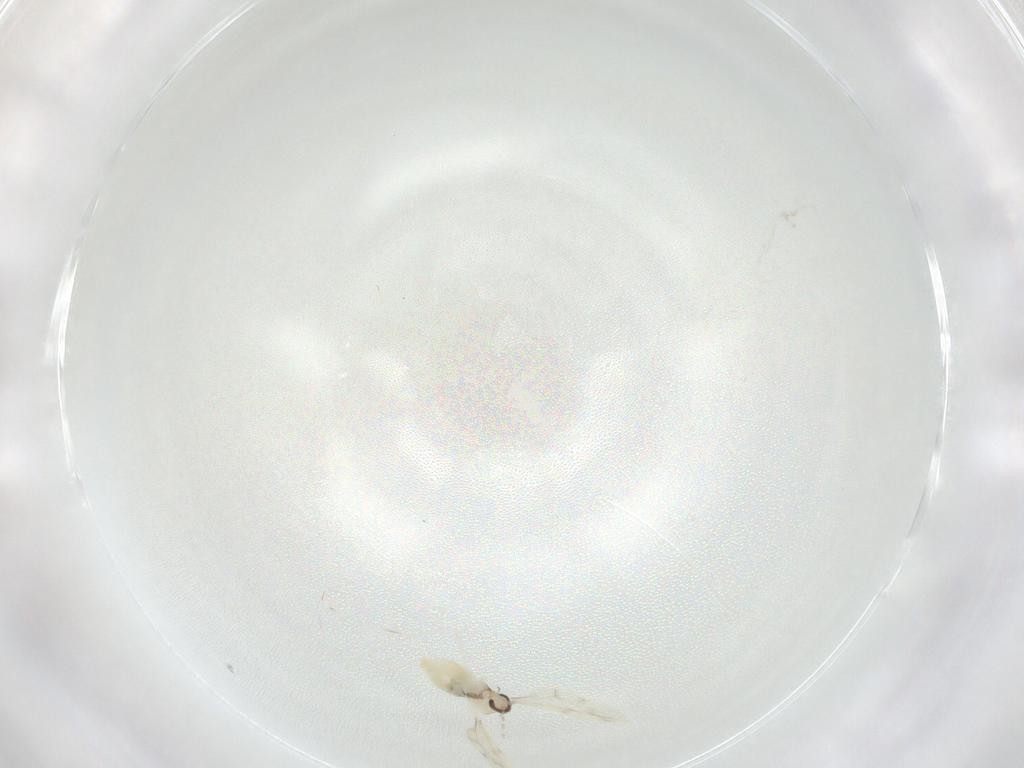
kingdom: Animalia
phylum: Arthropoda
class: Insecta
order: Diptera
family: Cecidomyiidae
